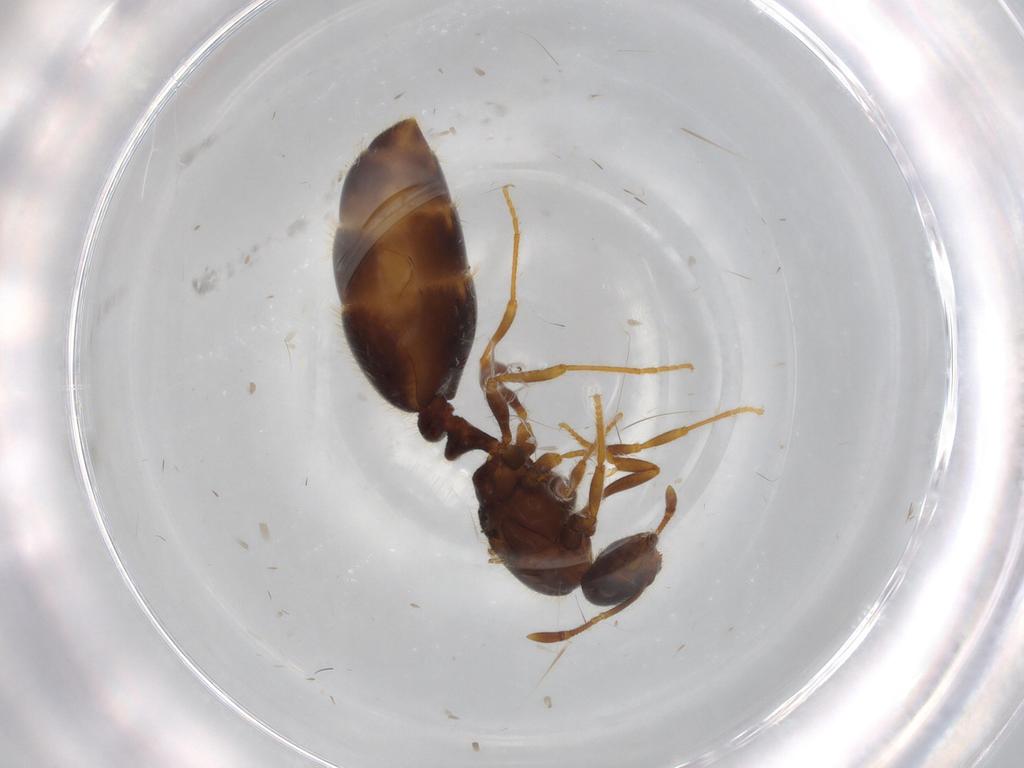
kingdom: Animalia
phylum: Arthropoda
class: Insecta
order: Hymenoptera
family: Formicidae
